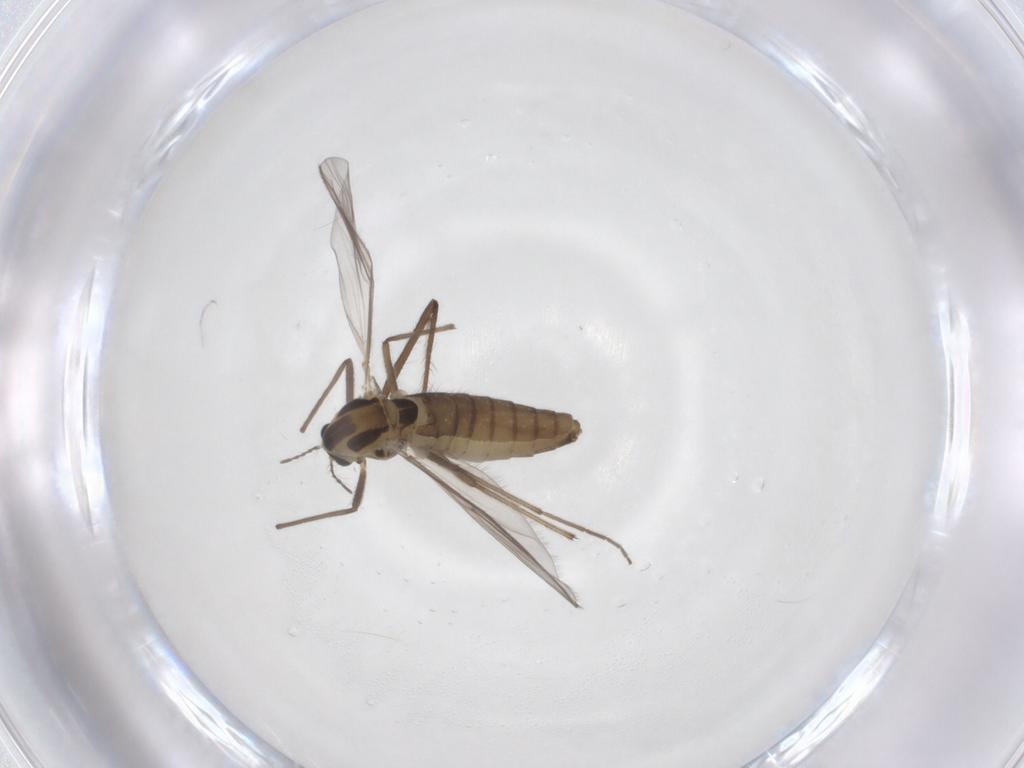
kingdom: Animalia
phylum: Arthropoda
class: Insecta
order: Diptera
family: Chironomidae
